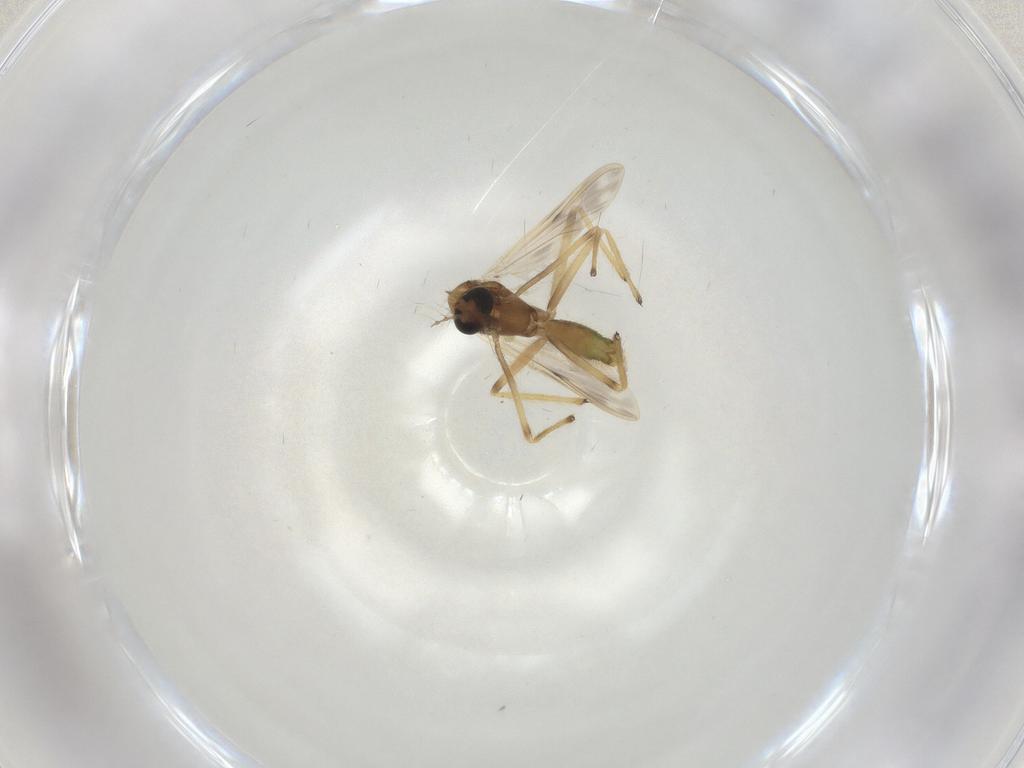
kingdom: Animalia
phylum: Arthropoda
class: Insecta
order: Diptera
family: Chironomidae
